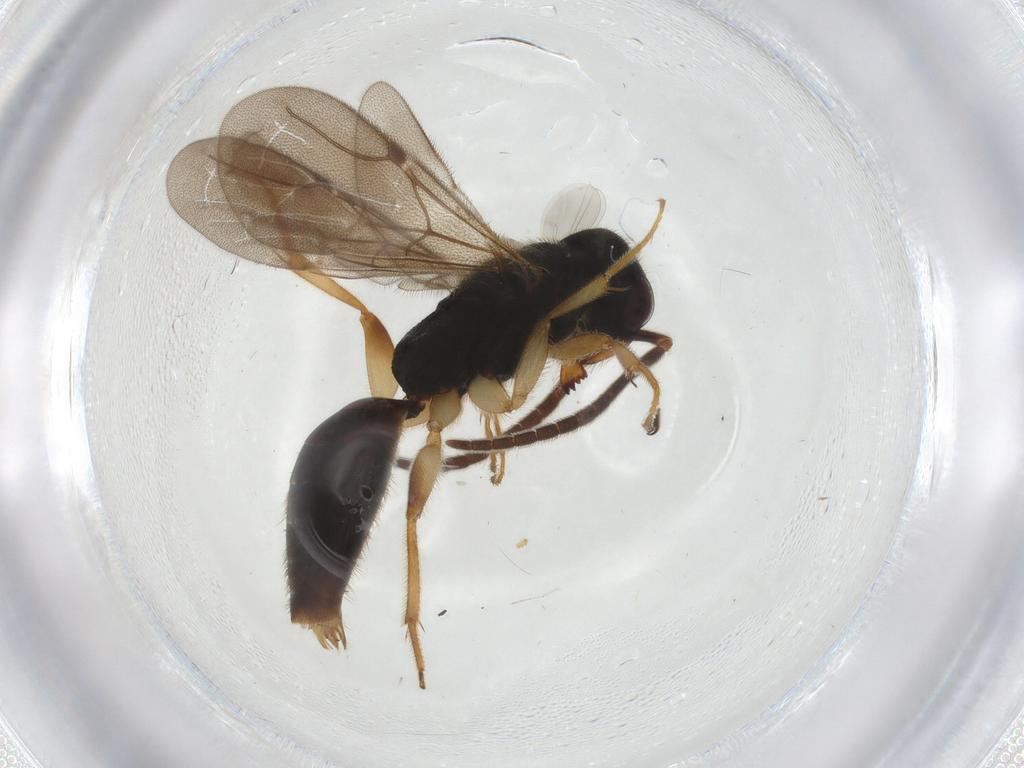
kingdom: Animalia
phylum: Arthropoda
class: Insecta
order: Hymenoptera
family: Bethylidae
